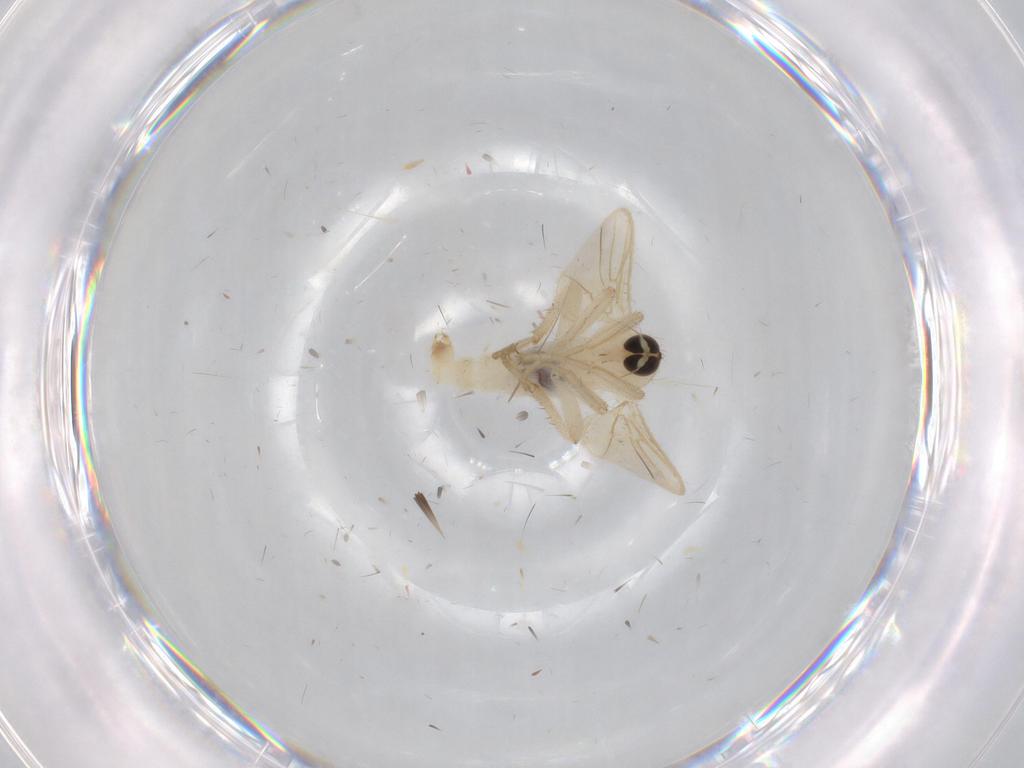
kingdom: Animalia
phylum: Arthropoda
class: Insecta
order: Diptera
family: Hybotidae
